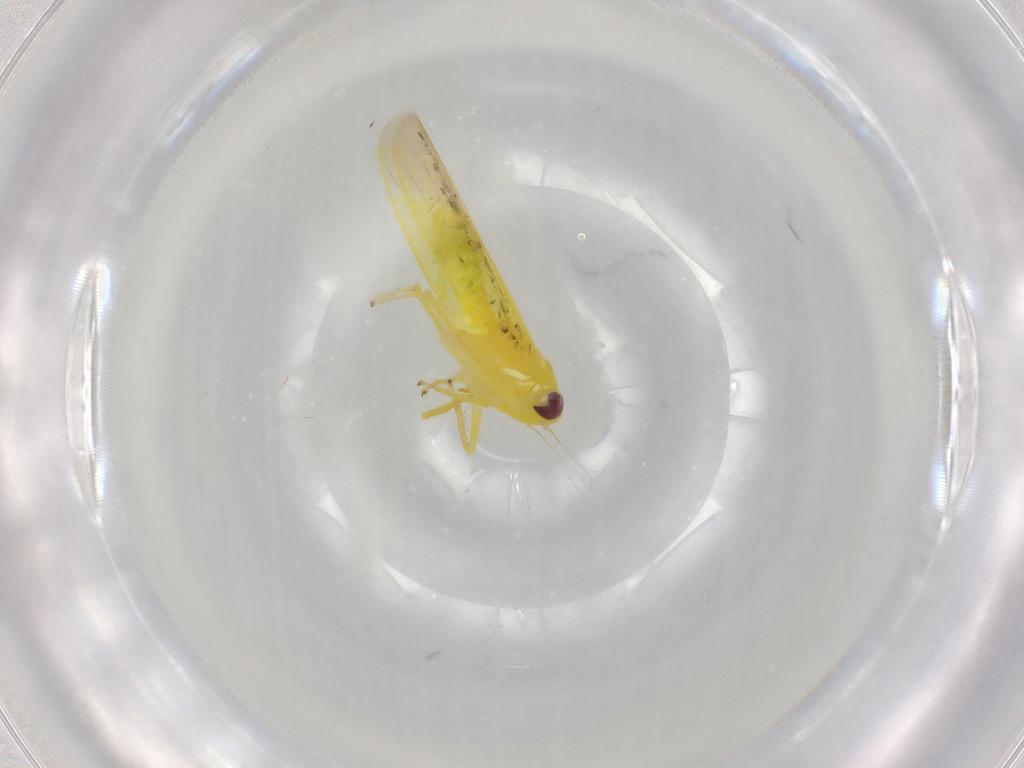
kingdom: Animalia
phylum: Arthropoda
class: Insecta
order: Hemiptera
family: Cicadellidae
